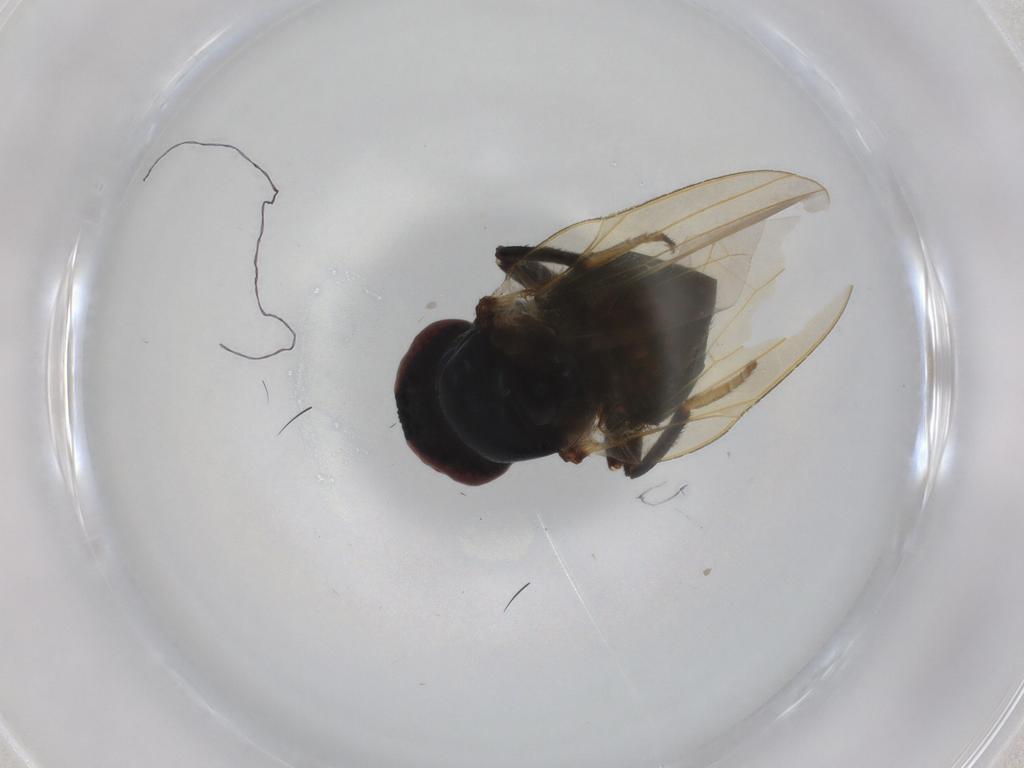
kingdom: Animalia
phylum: Arthropoda
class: Insecta
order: Diptera
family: Lonchaeidae
